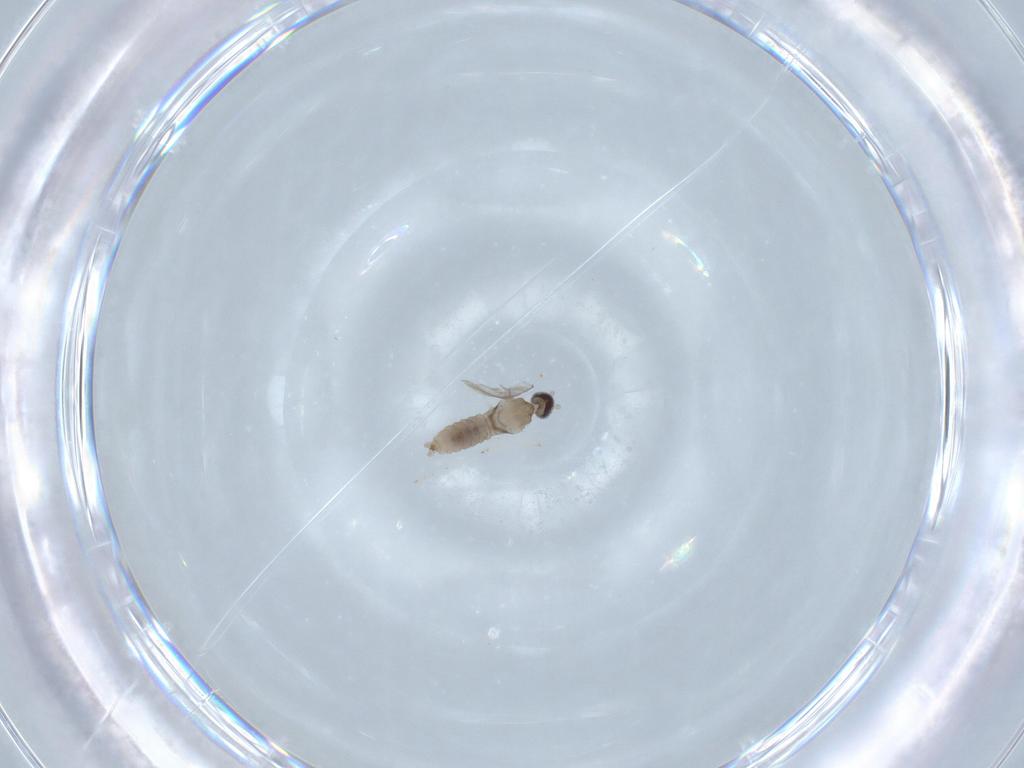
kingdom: Animalia
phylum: Arthropoda
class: Insecta
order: Diptera
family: Cecidomyiidae
